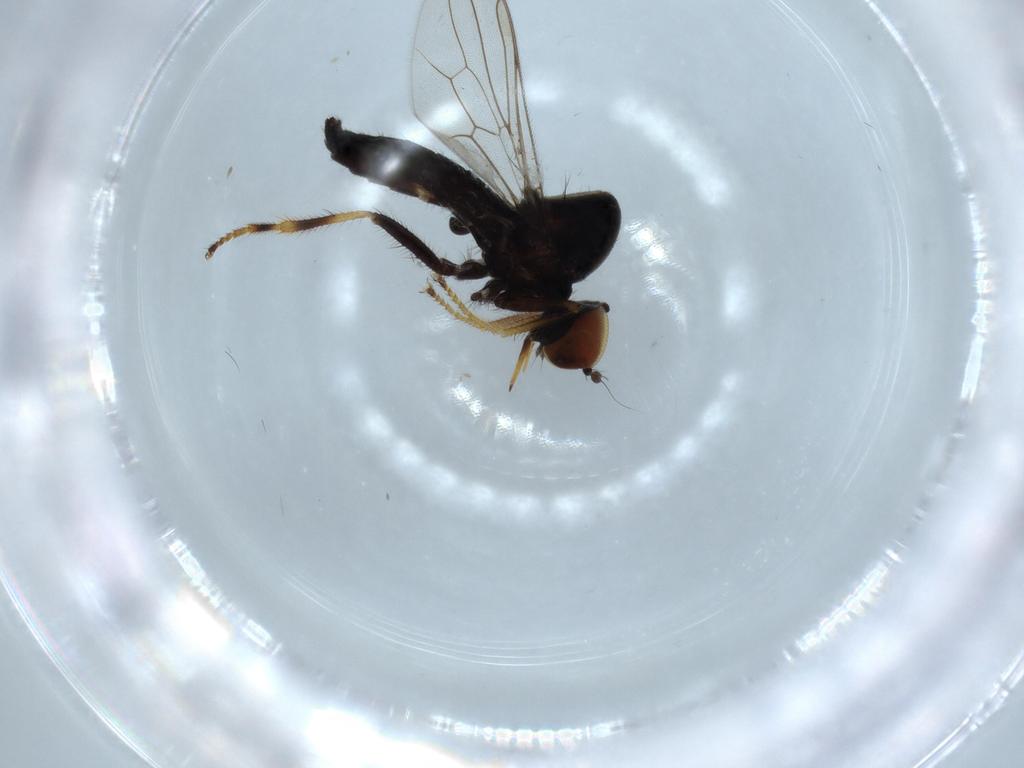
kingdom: Animalia
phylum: Arthropoda
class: Insecta
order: Diptera
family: Hybotidae
